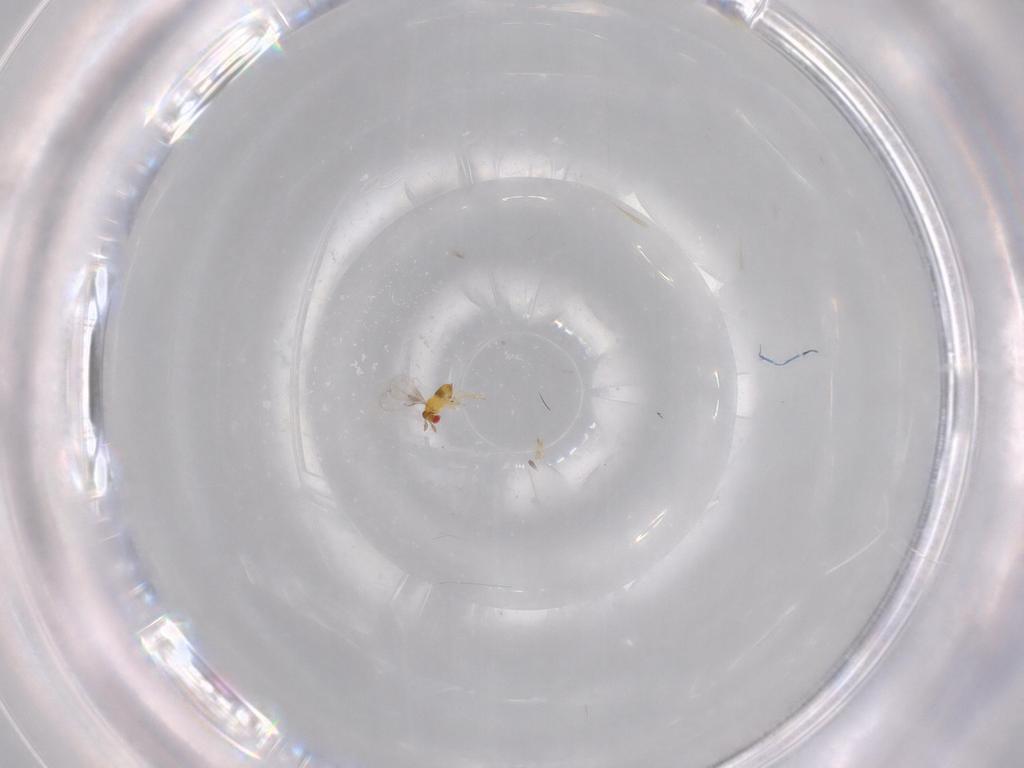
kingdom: Animalia
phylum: Arthropoda
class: Insecta
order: Hymenoptera
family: Trichogrammatidae
